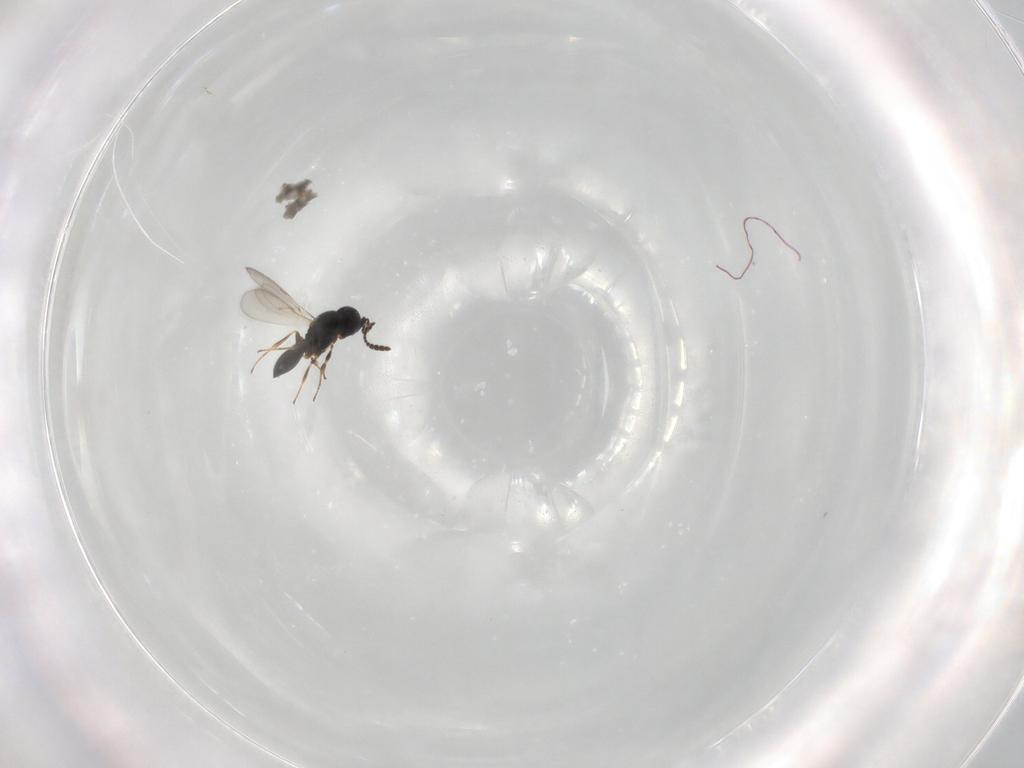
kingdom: Animalia
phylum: Arthropoda
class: Insecta
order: Hymenoptera
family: Scelionidae
